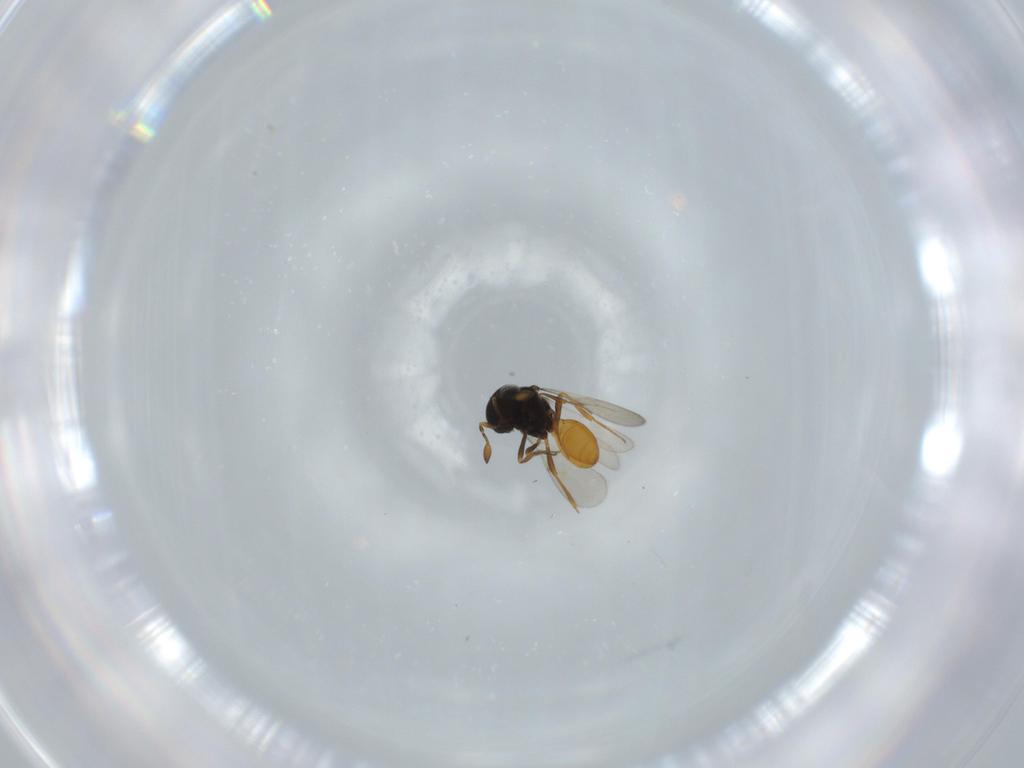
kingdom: Animalia
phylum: Arthropoda
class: Insecta
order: Hymenoptera
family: Scelionidae
